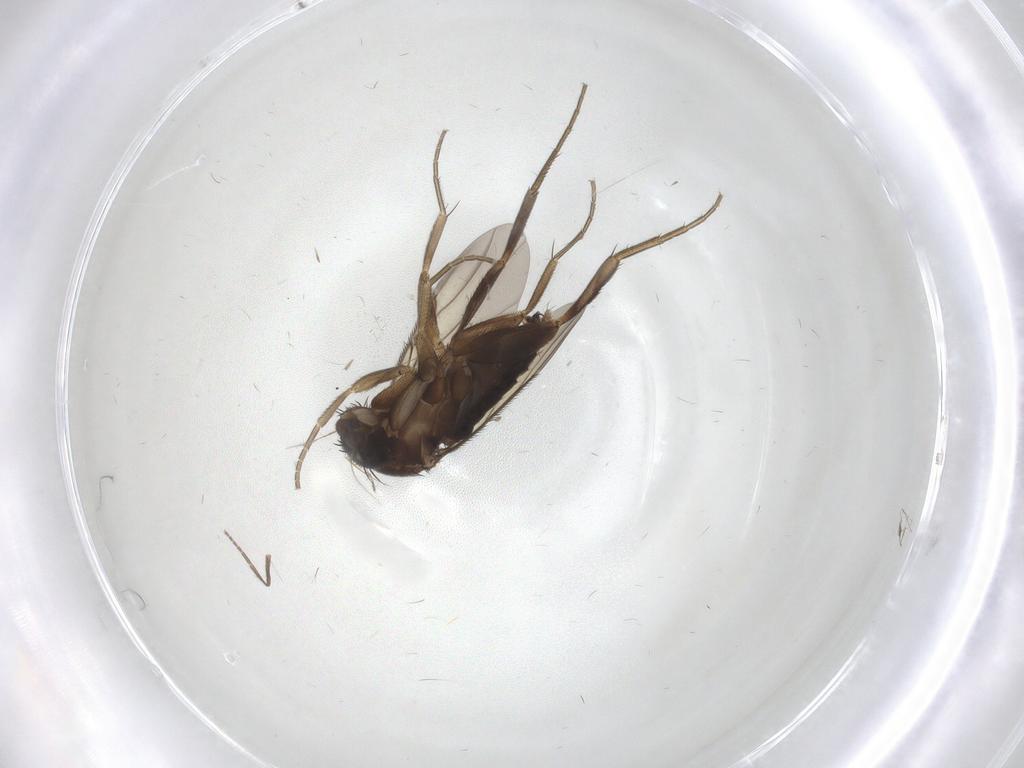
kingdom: Animalia
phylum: Arthropoda
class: Insecta
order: Diptera
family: Phoridae
